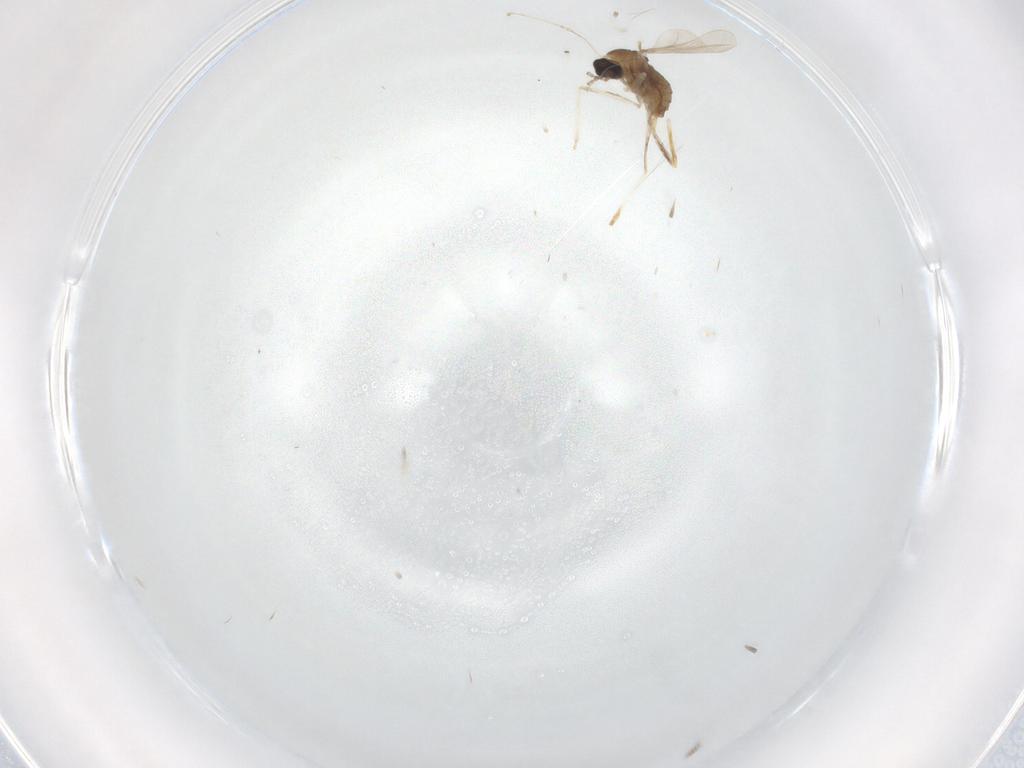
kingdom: Animalia
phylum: Arthropoda
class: Insecta
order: Diptera
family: Cecidomyiidae
